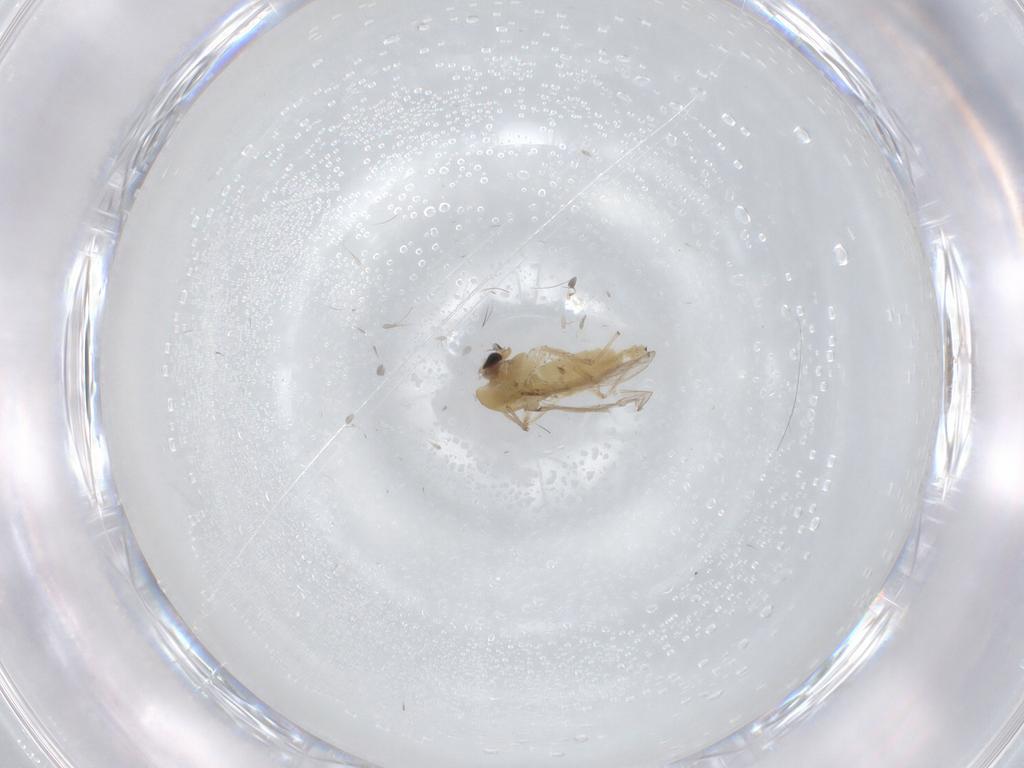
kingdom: Animalia
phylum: Arthropoda
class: Insecta
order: Diptera
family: Chironomidae
